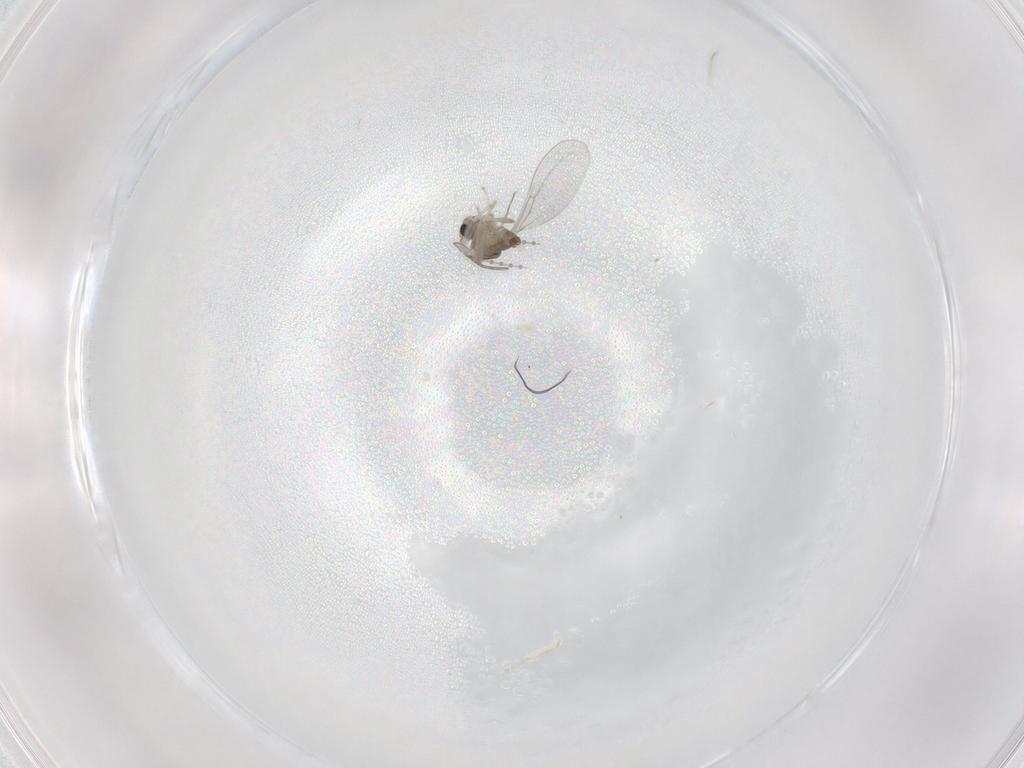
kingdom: Animalia
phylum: Arthropoda
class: Insecta
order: Diptera
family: Cecidomyiidae
